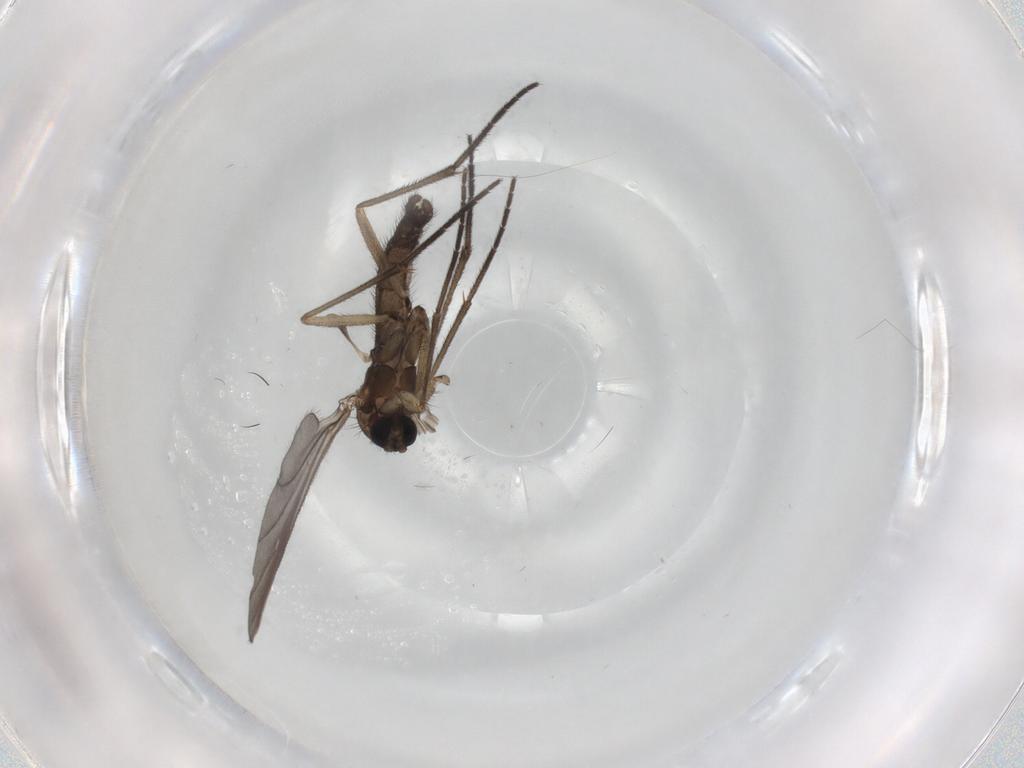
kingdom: Animalia
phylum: Arthropoda
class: Insecta
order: Diptera
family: Sciaridae
